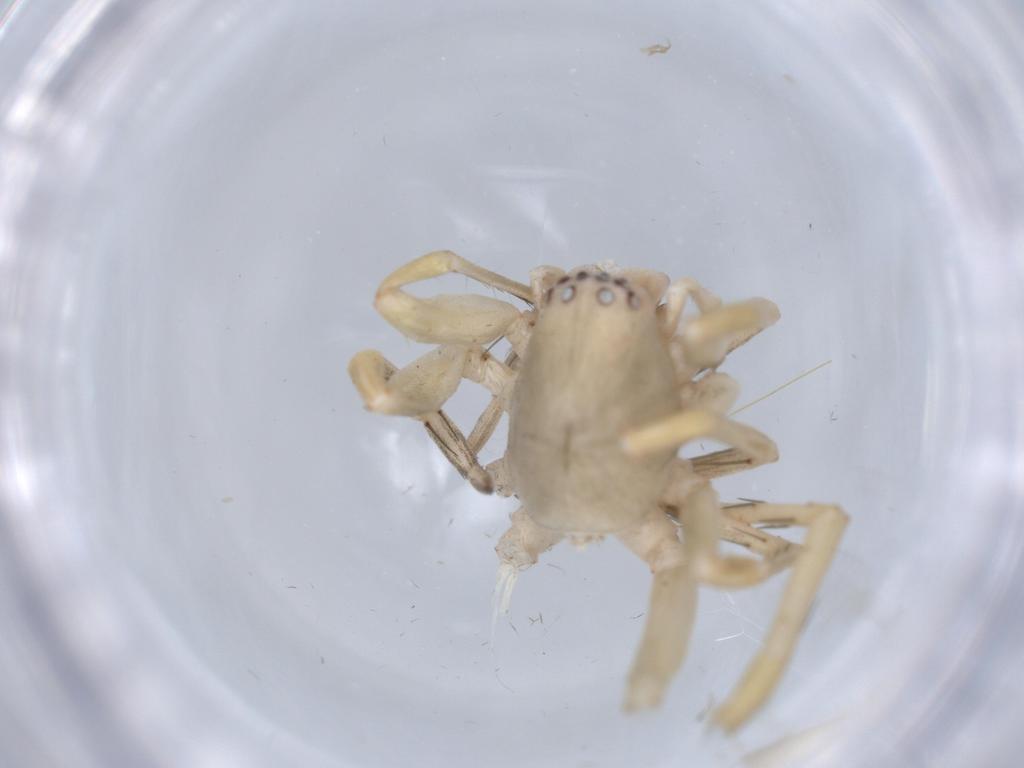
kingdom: Animalia
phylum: Arthropoda
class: Arachnida
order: Araneae
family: Clubionidae
